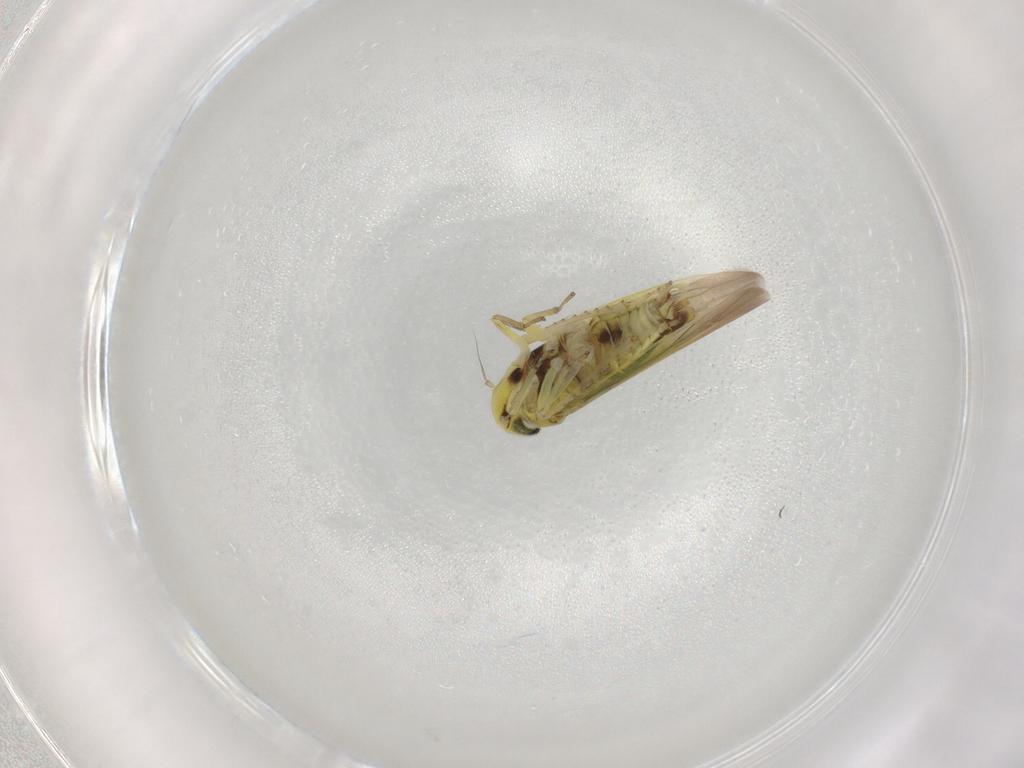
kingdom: Animalia
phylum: Arthropoda
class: Insecta
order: Hemiptera
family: Cicadellidae
